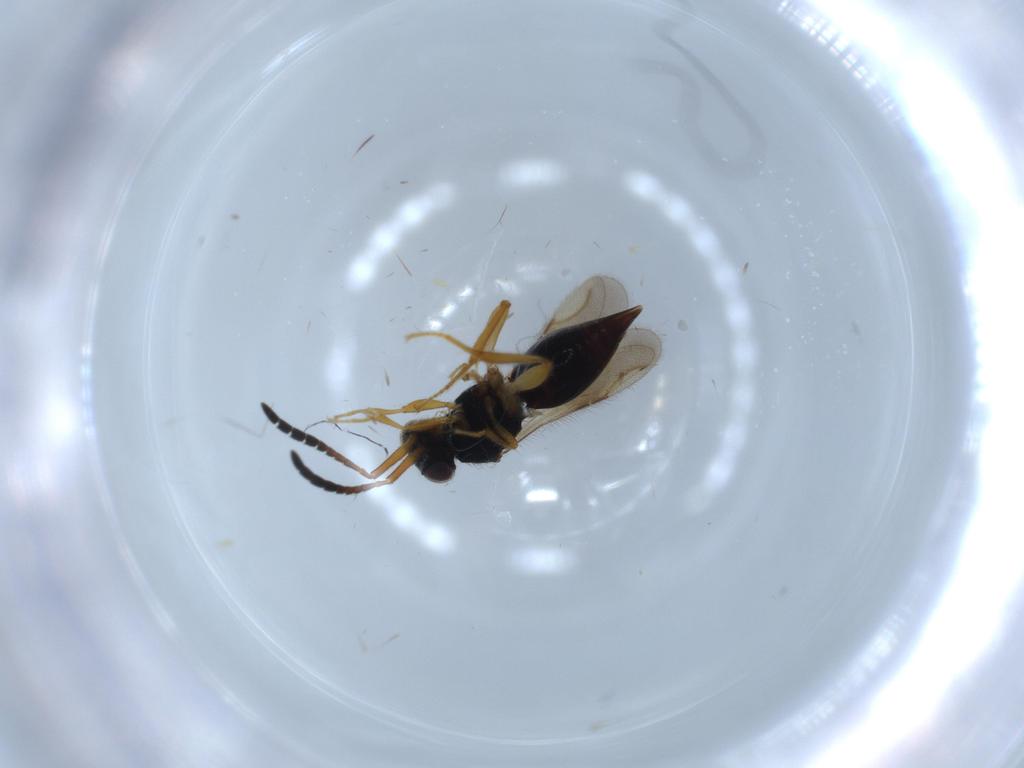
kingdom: Animalia
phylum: Arthropoda
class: Insecta
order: Hymenoptera
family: Ceraphronidae
